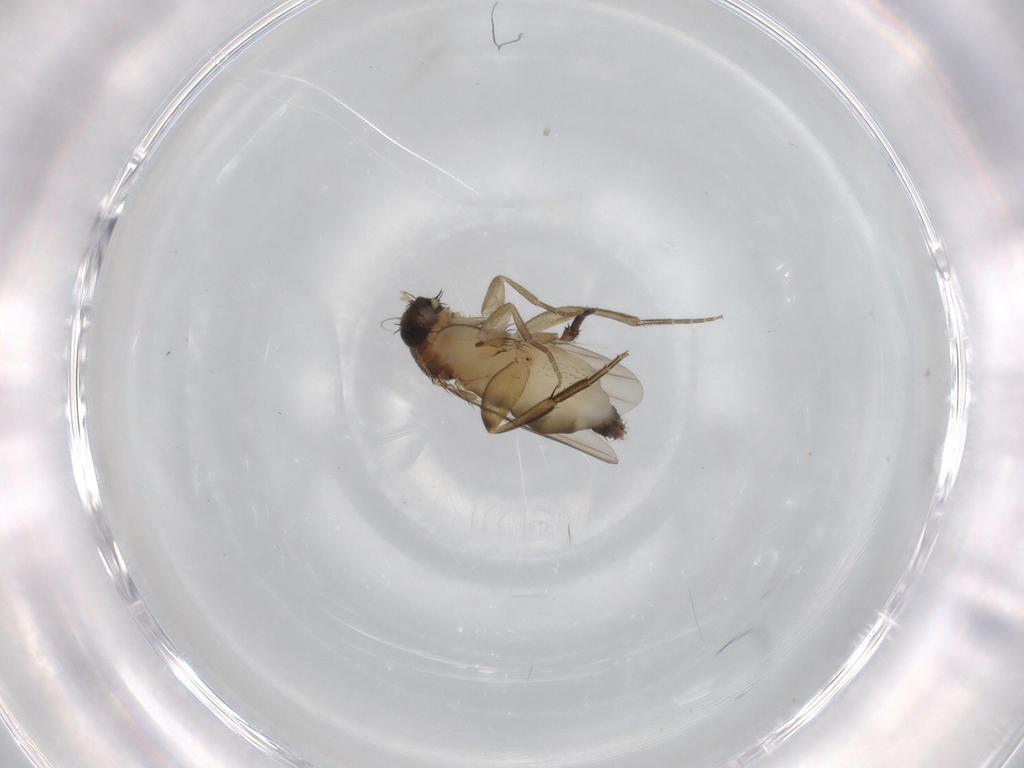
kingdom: Animalia
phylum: Arthropoda
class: Insecta
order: Diptera
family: Phoridae
